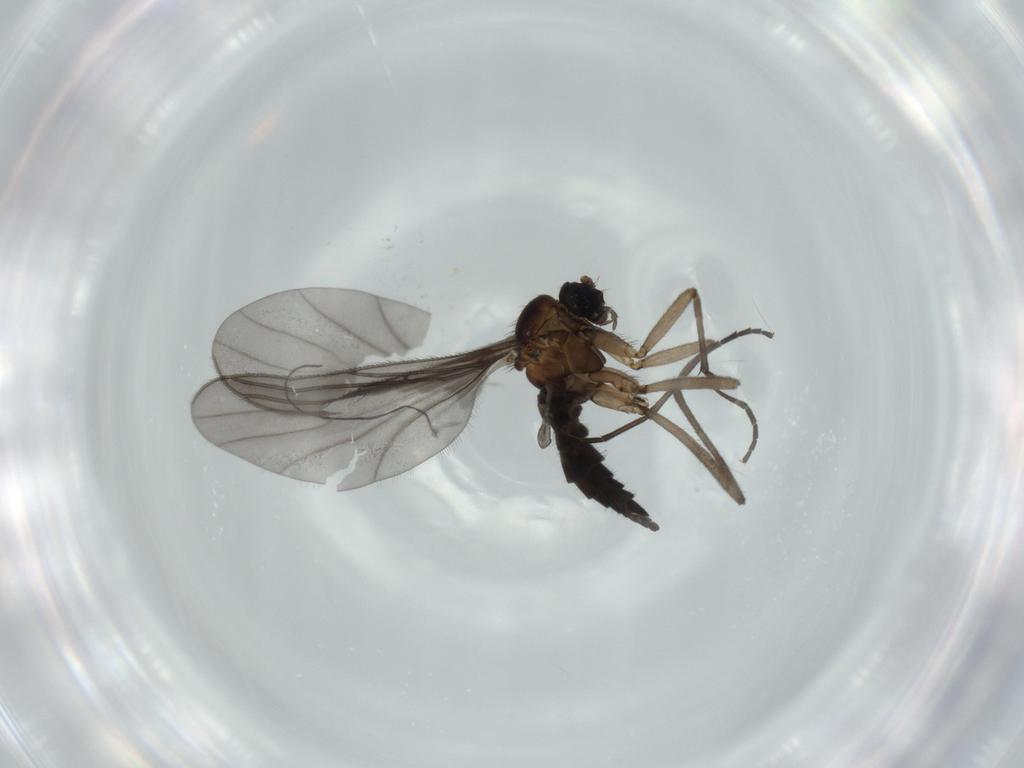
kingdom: Animalia
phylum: Arthropoda
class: Insecta
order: Diptera
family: Sciaridae
